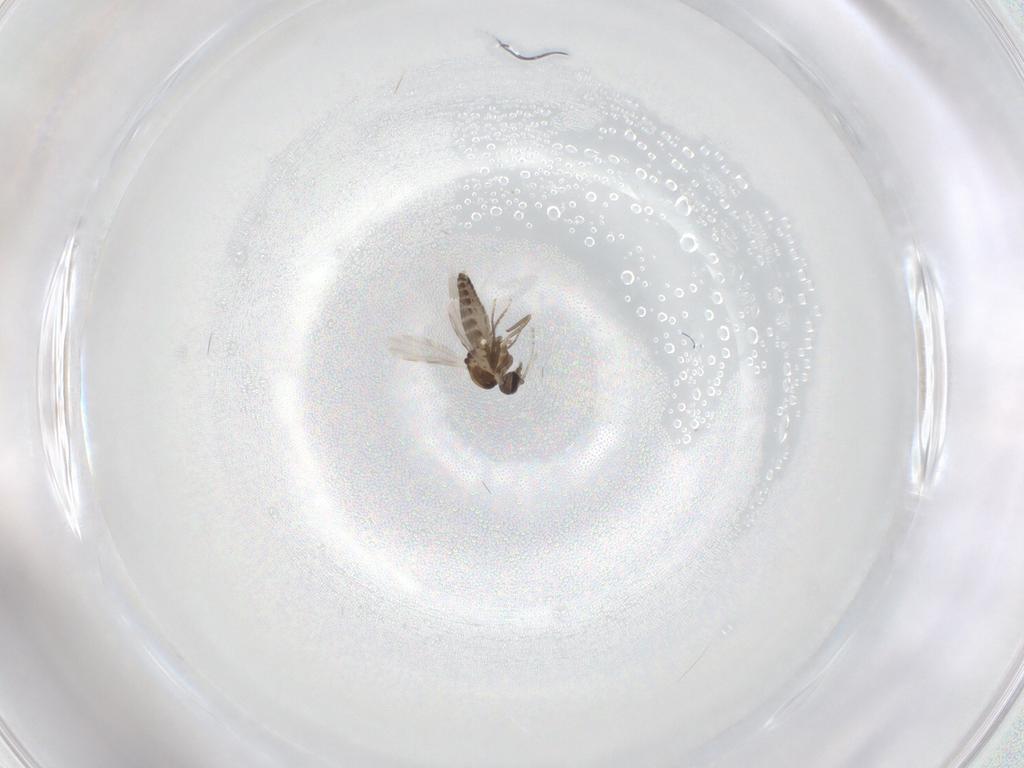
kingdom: Animalia
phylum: Arthropoda
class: Insecta
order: Diptera
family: Ceratopogonidae
